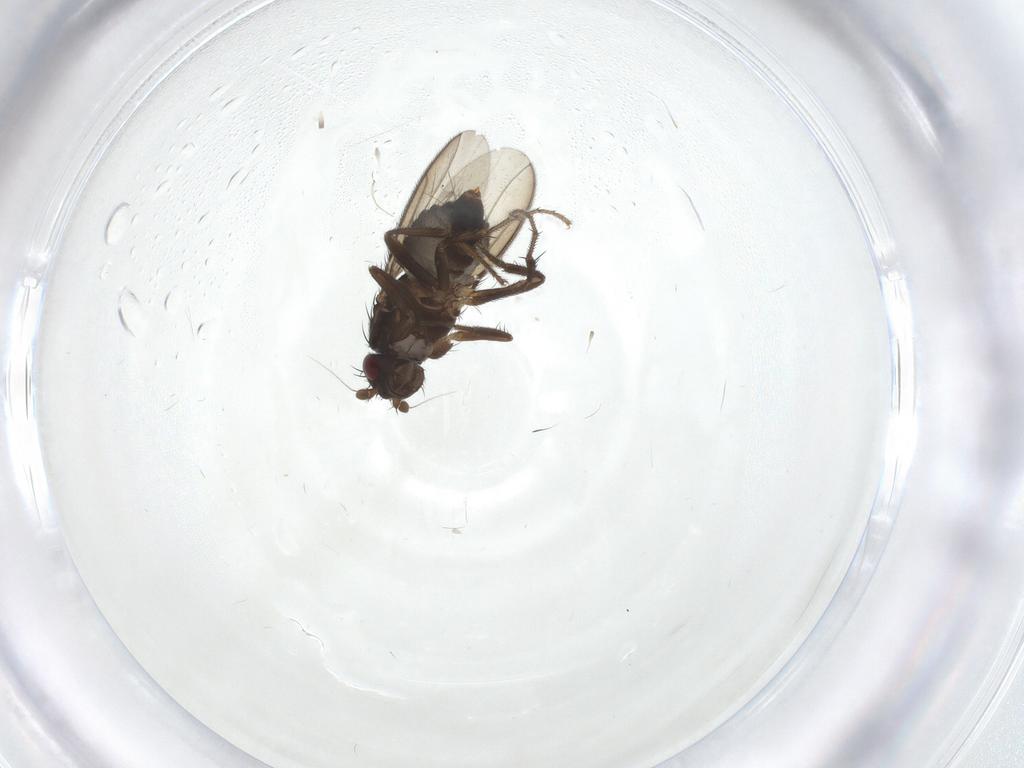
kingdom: Animalia
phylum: Arthropoda
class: Insecta
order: Diptera
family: Sphaeroceridae
